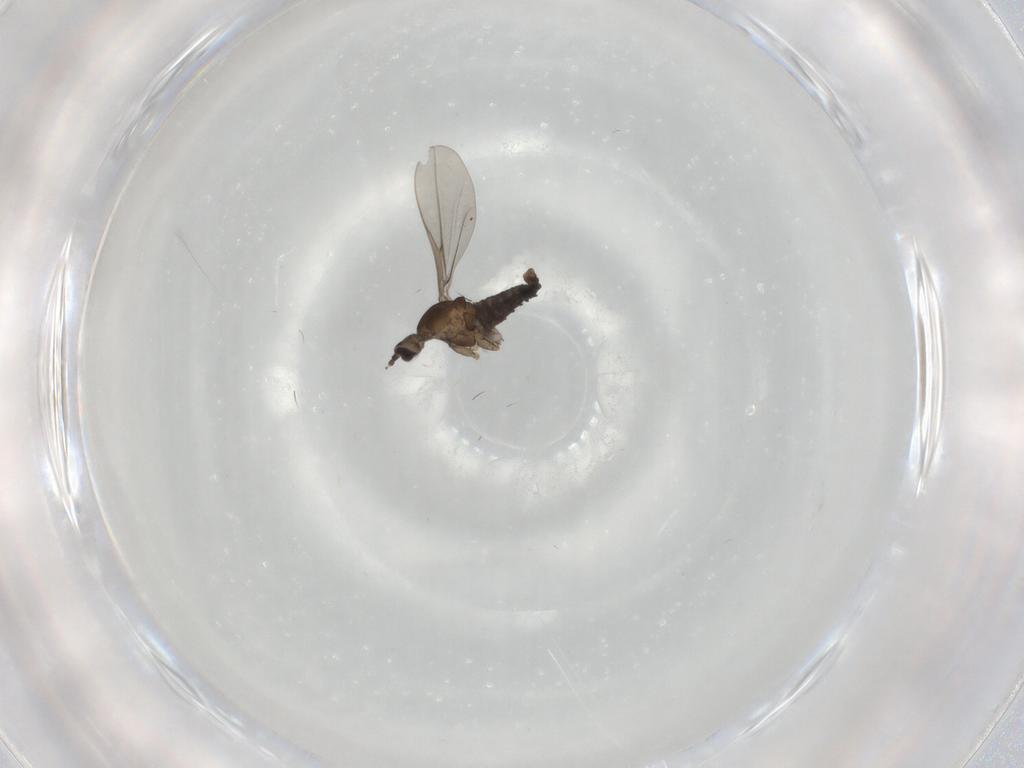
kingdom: Animalia
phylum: Arthropoda
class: Insecta
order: Diptera
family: Cecidomyiidae
